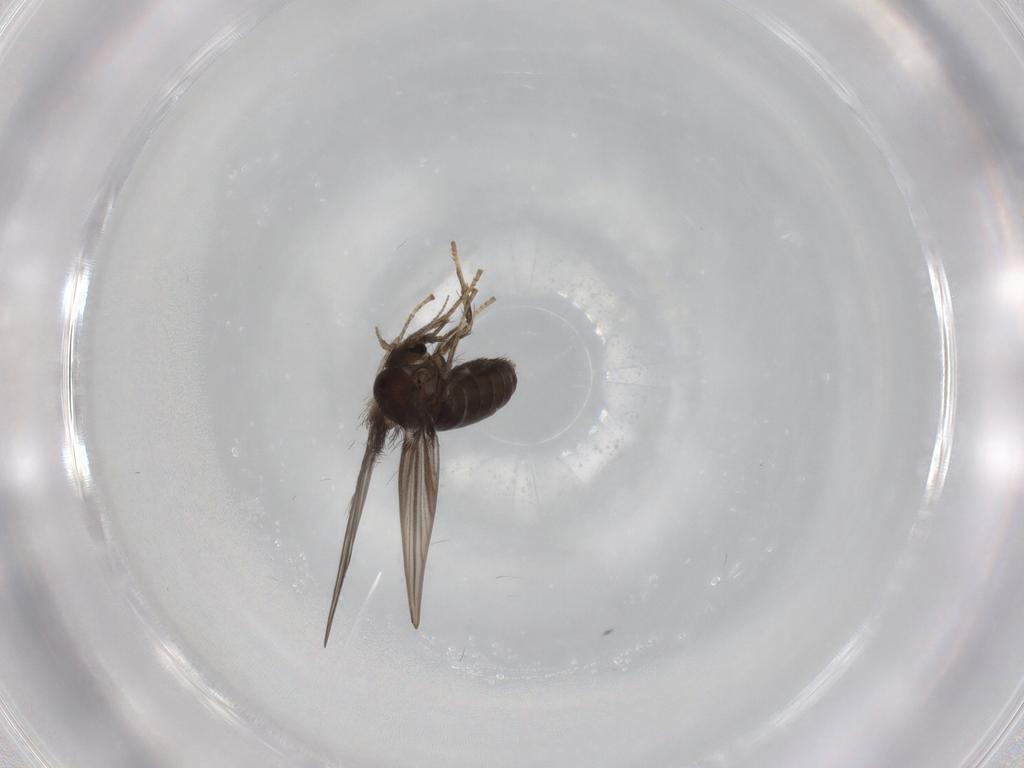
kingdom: Animalia
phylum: Arthropoda
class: Insecta
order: Diptera
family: Psychodidae
